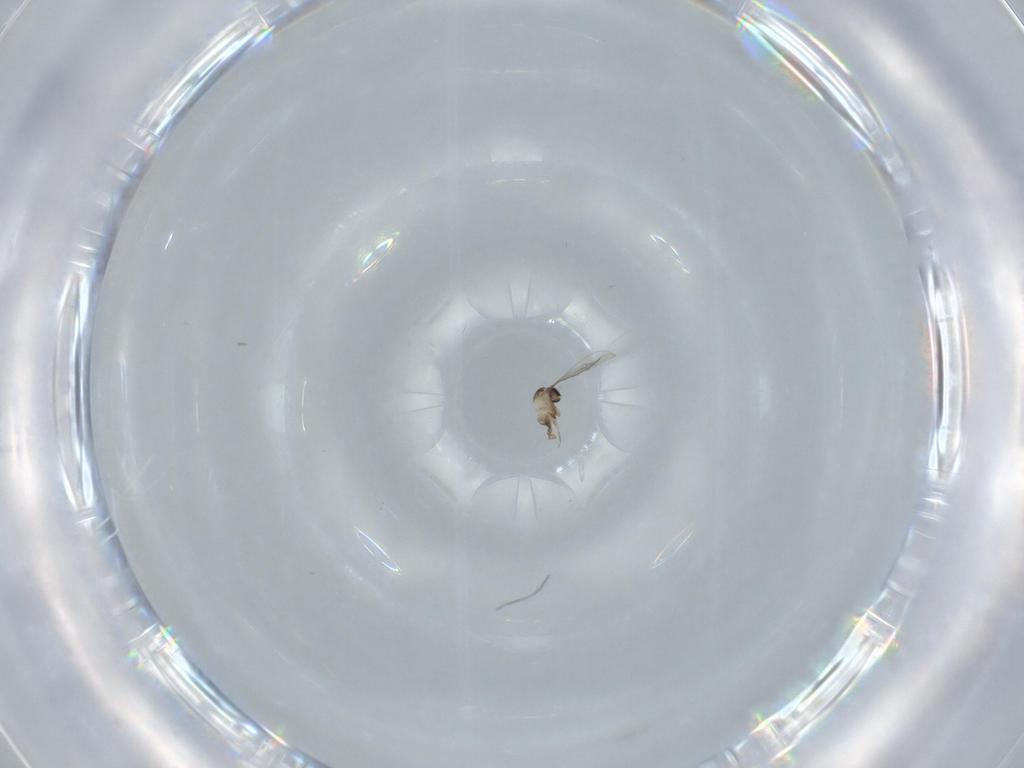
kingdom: Animalia
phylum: Arthropoda
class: Insecta
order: Diptera
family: Cecidomyiidae
